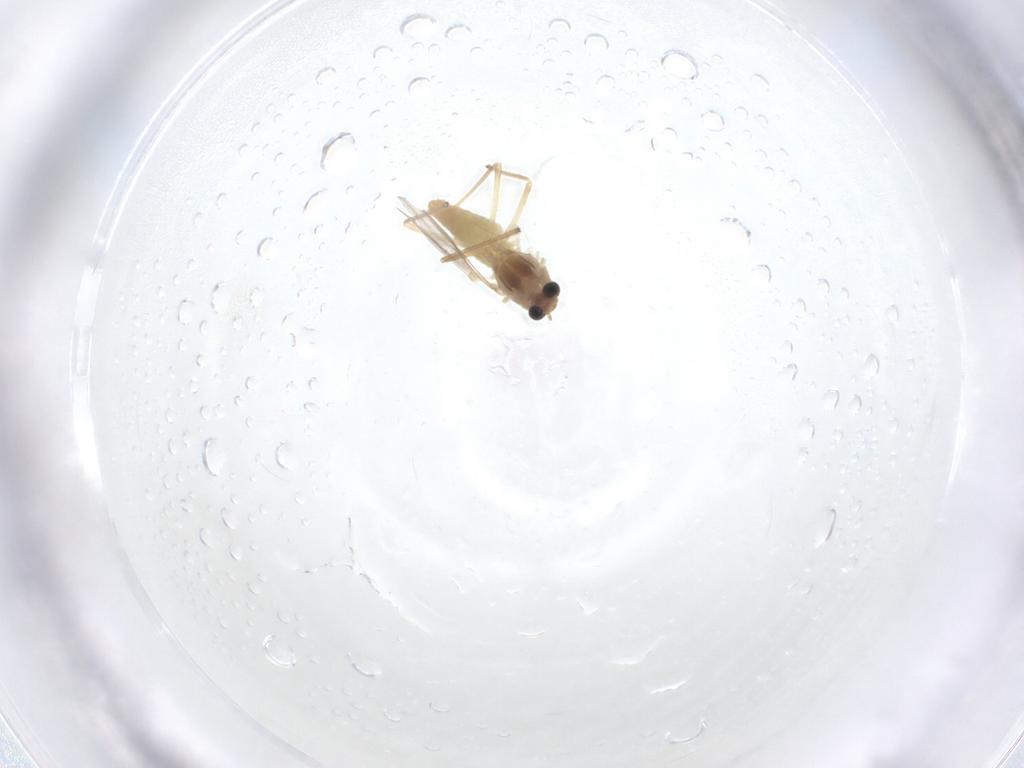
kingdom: Animalia
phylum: Arthropoda
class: Insecta
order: Diptera
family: Chironomidae
